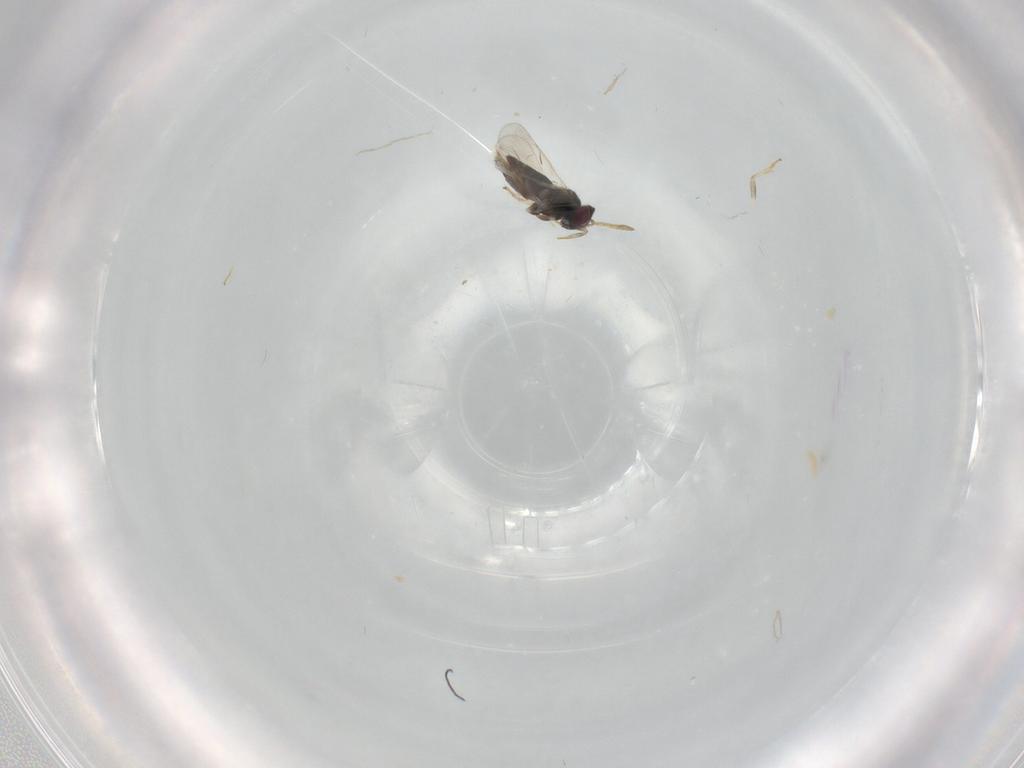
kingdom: Animalia
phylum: Arthropoda
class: Insecta
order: Hymenoptera
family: Aphelinidae
